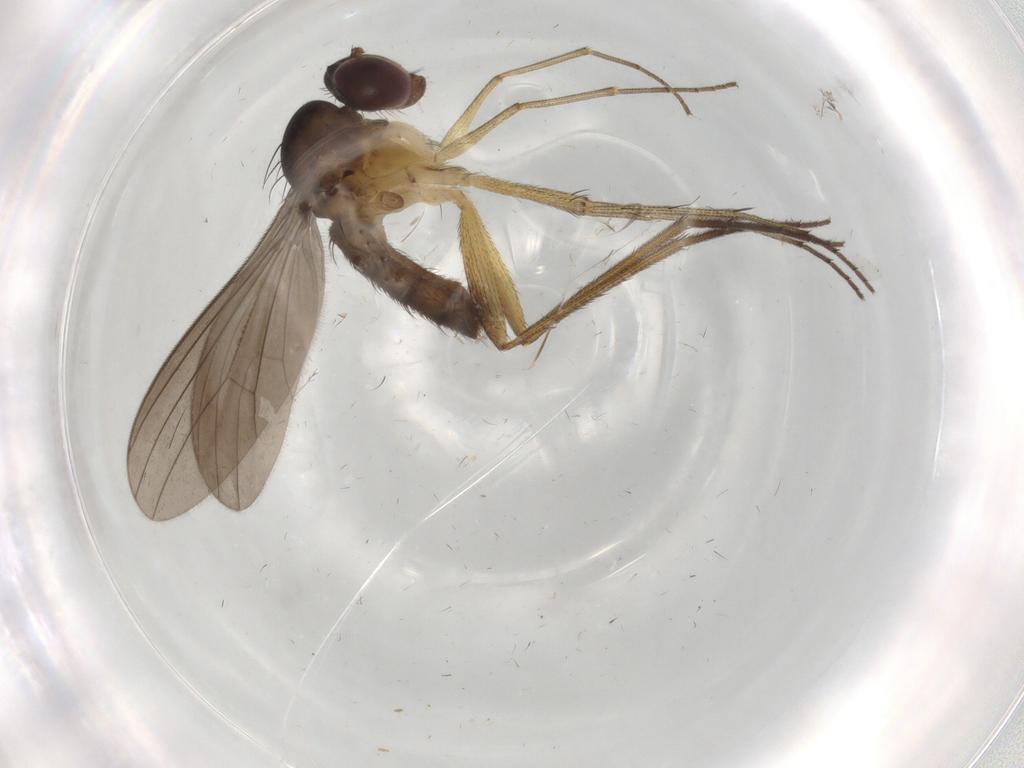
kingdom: Animalia
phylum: Arthropoda
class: Insecta
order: Diptera
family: Dolichopodidae
